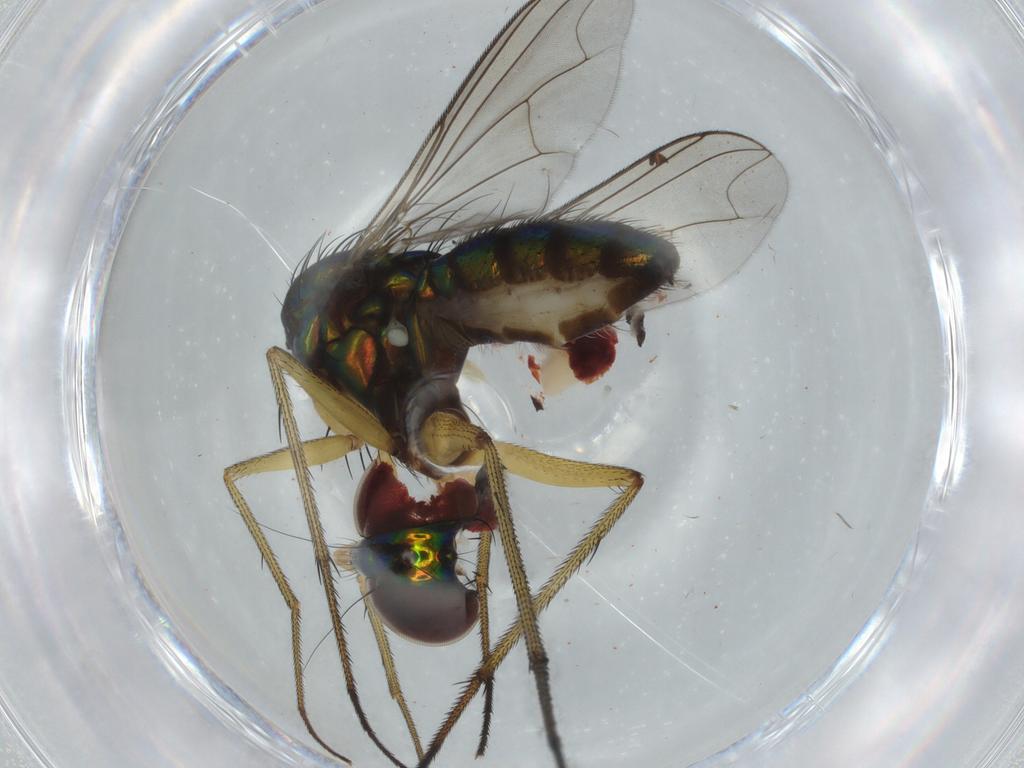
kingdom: Animalia
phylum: Arthropoda
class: Insecta
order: Diptera
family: Dolichopodidae
